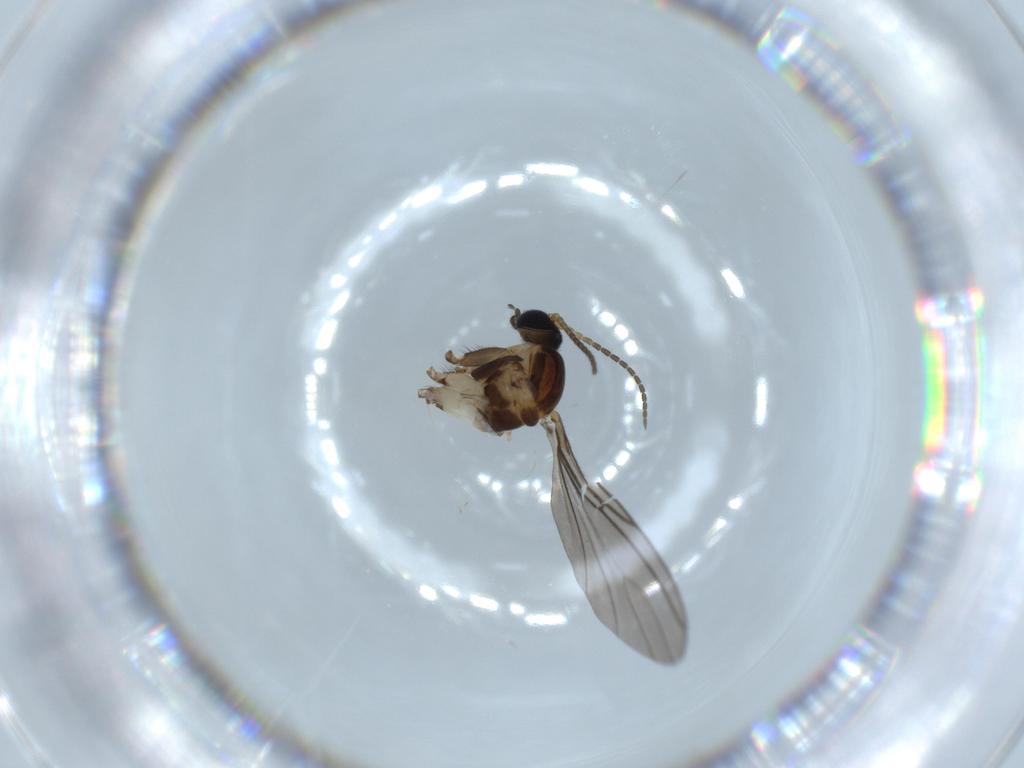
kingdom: Animalia
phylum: Arthropoda
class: Insecta
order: Diptera
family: Sciaridae
